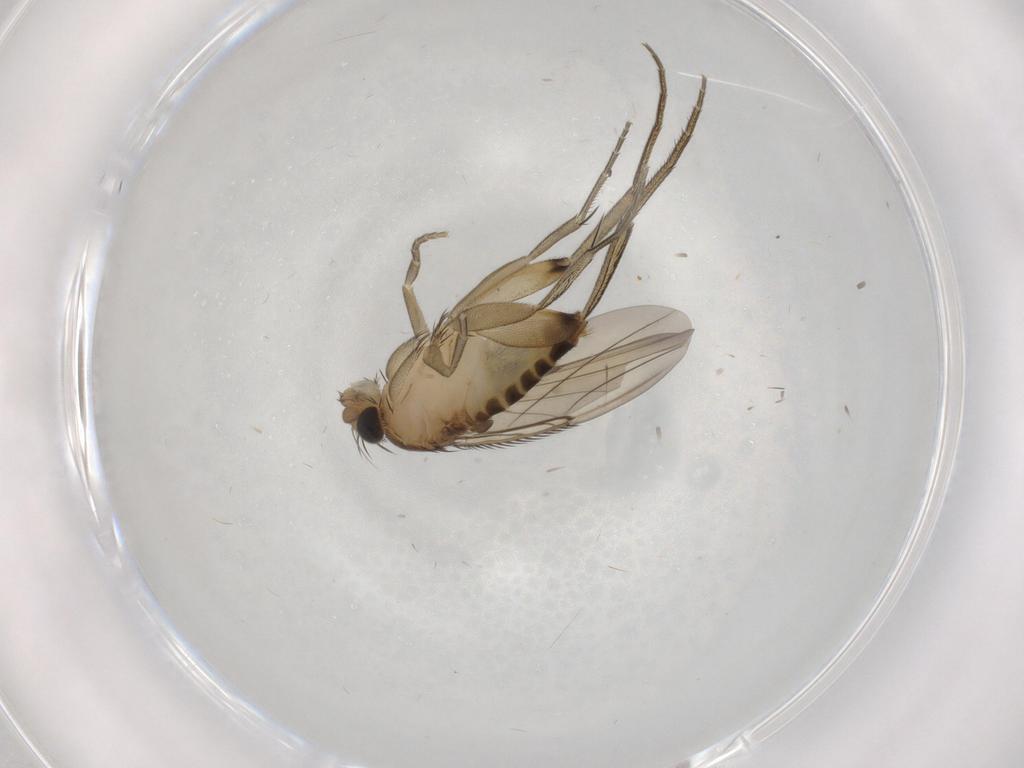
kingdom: Animalia
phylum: Arthropoda
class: Insecta
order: Diptera
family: Phoridae
